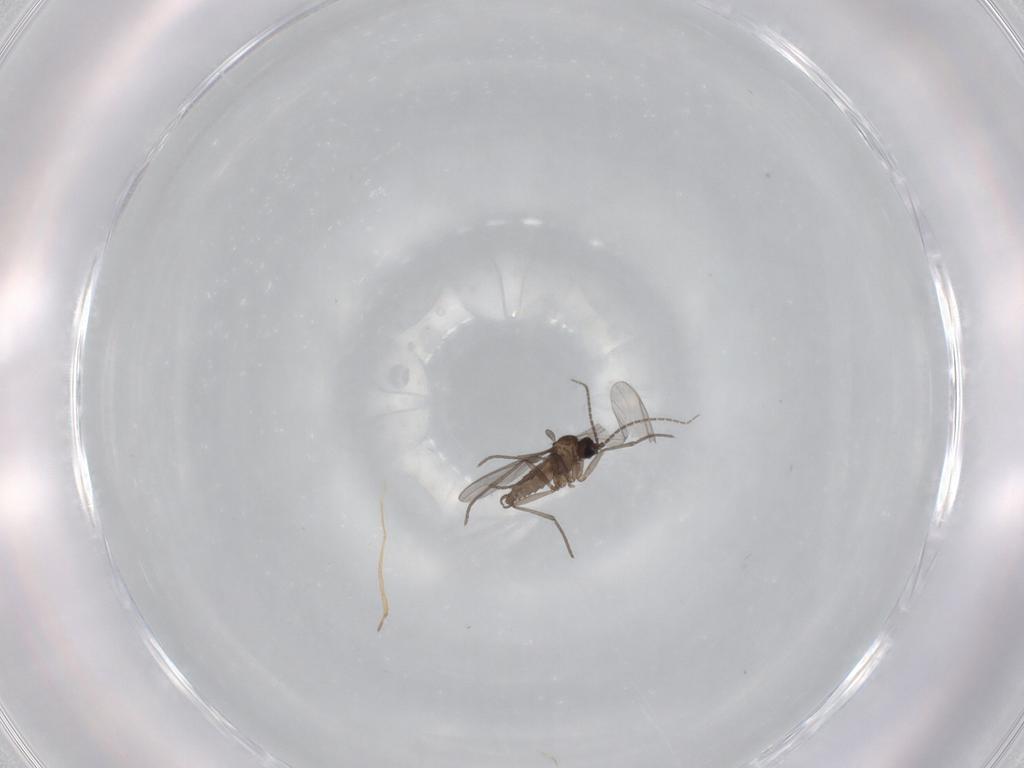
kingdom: Animalia
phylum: Arthropoda
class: Insecta
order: Diptera
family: Sciaridae
